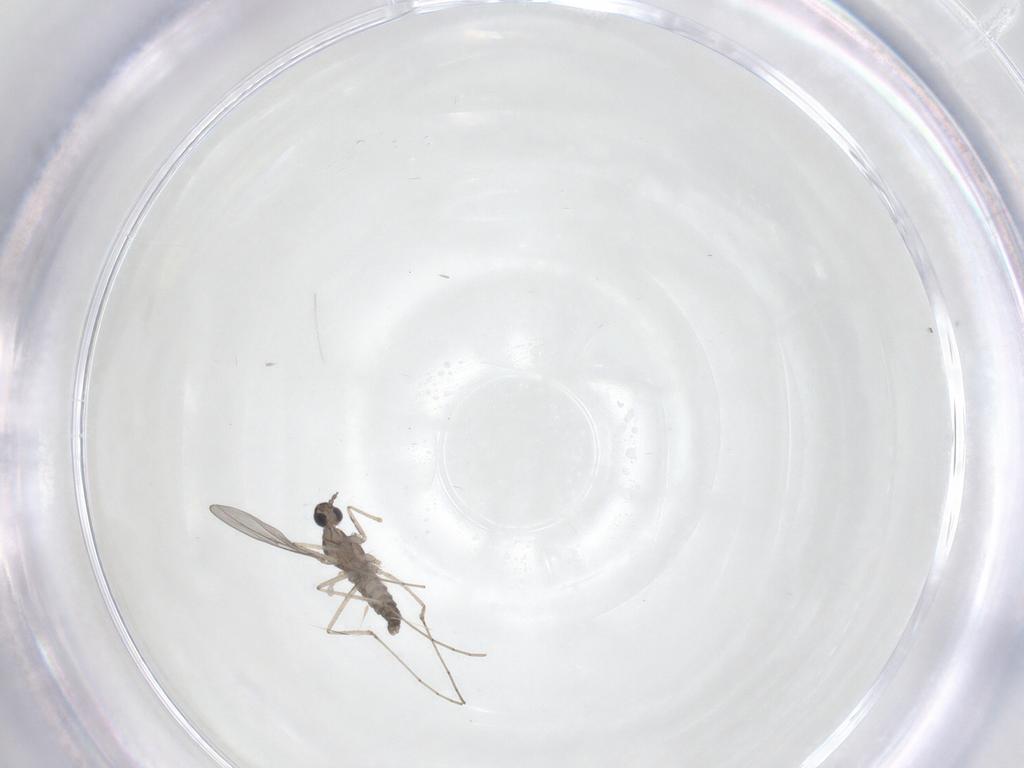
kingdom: Animalia
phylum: Arthropoda
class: Insecta
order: Diptera
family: Cecidomyiidae
